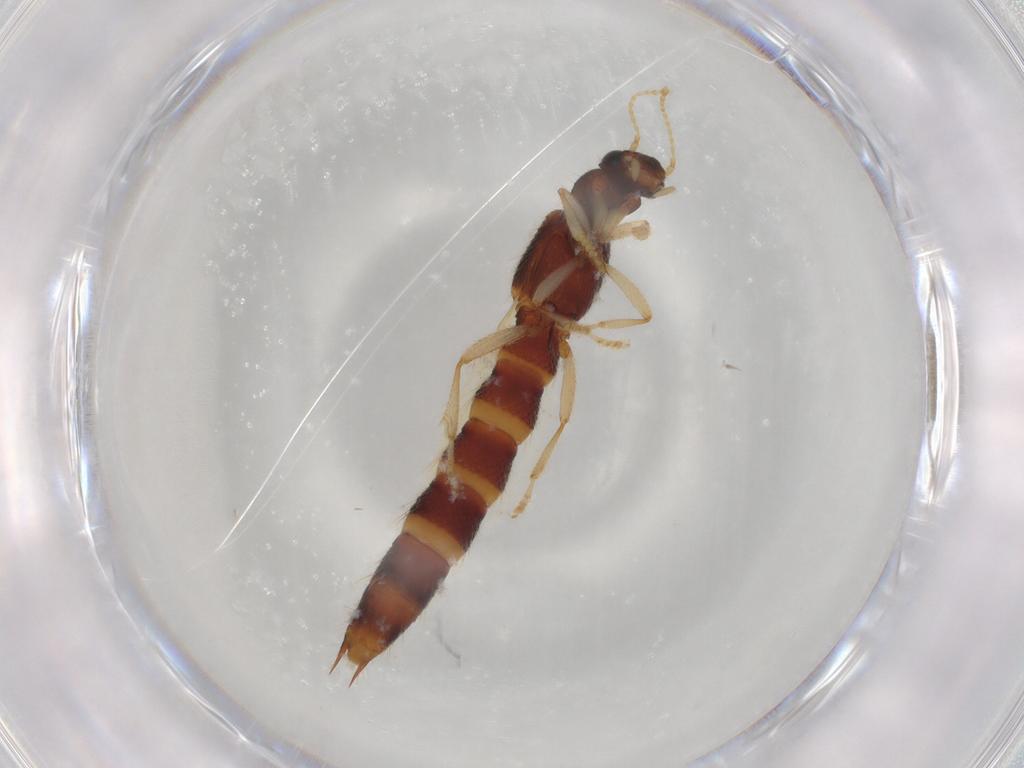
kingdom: Animalia
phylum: Arthropoda
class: Insecta
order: Coleoptera
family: Staphylinidae
